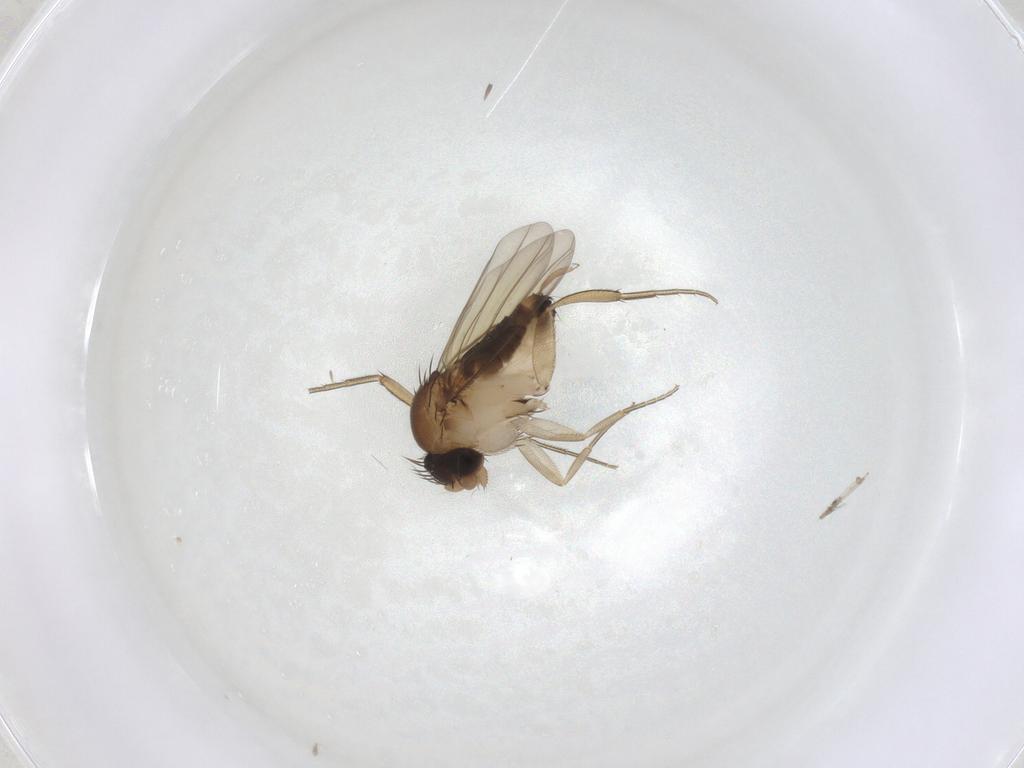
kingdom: Animalia
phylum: Arthropoda
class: Insecta
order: Diptera
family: Phoridae
